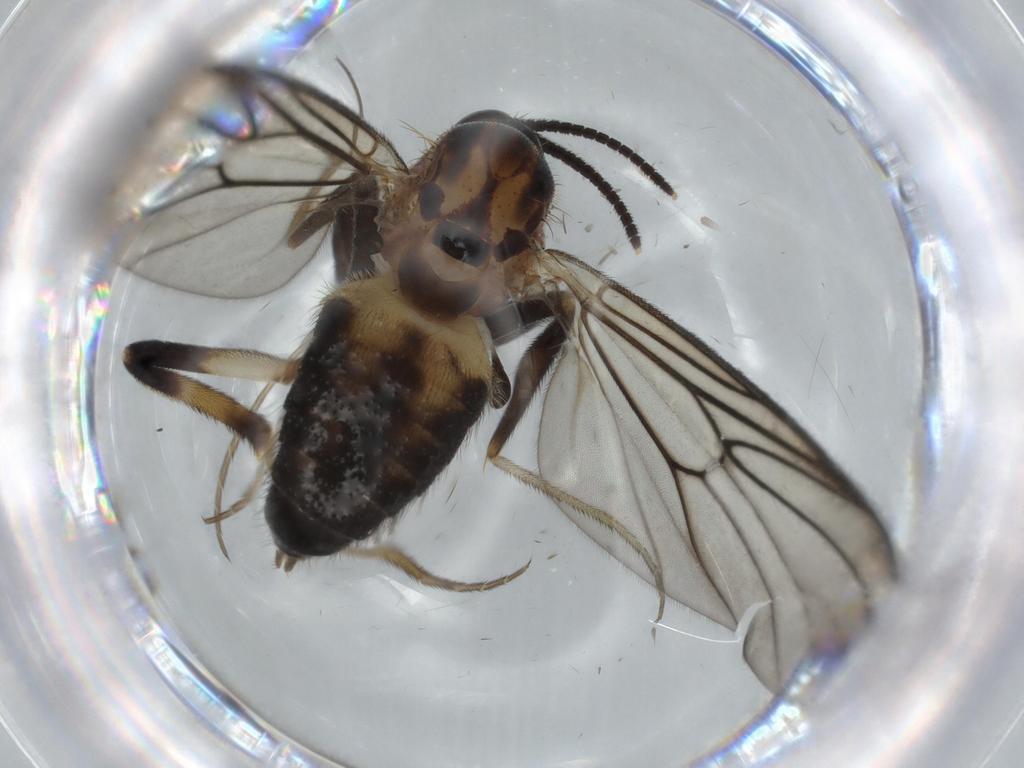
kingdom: Animalia
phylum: Arthropoda
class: Insecta
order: Diptera
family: Cecidomyiidae
